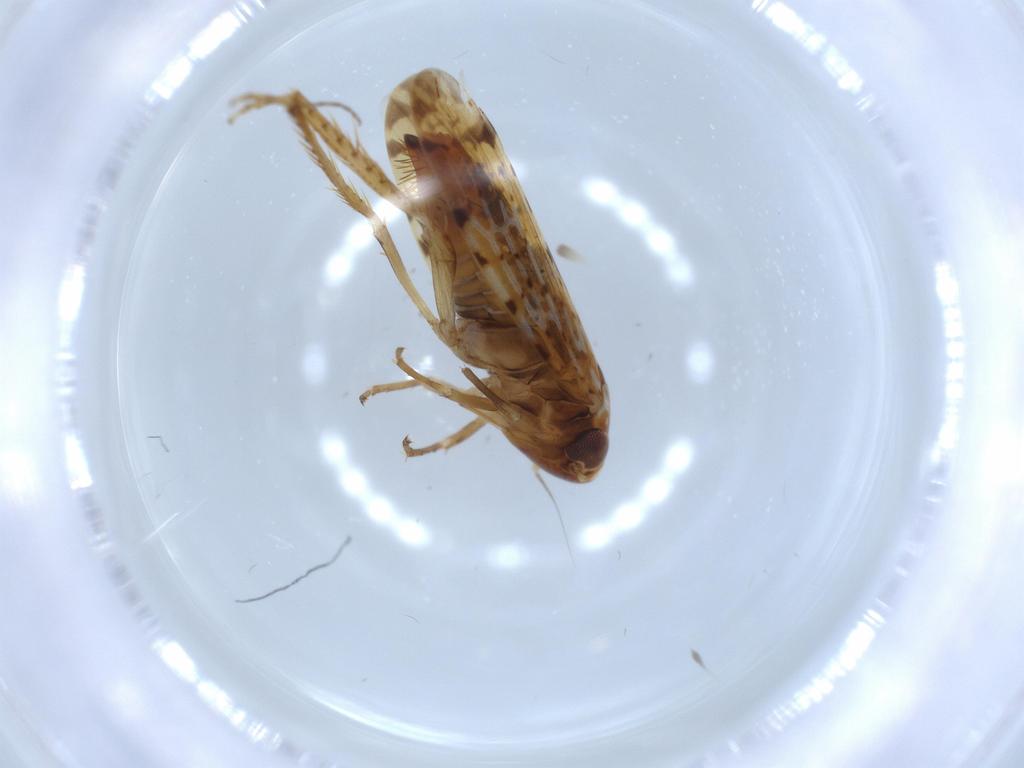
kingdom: Animalia
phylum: Arthropoda
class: Insecta
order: Hemiptera
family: Cicadellidae
